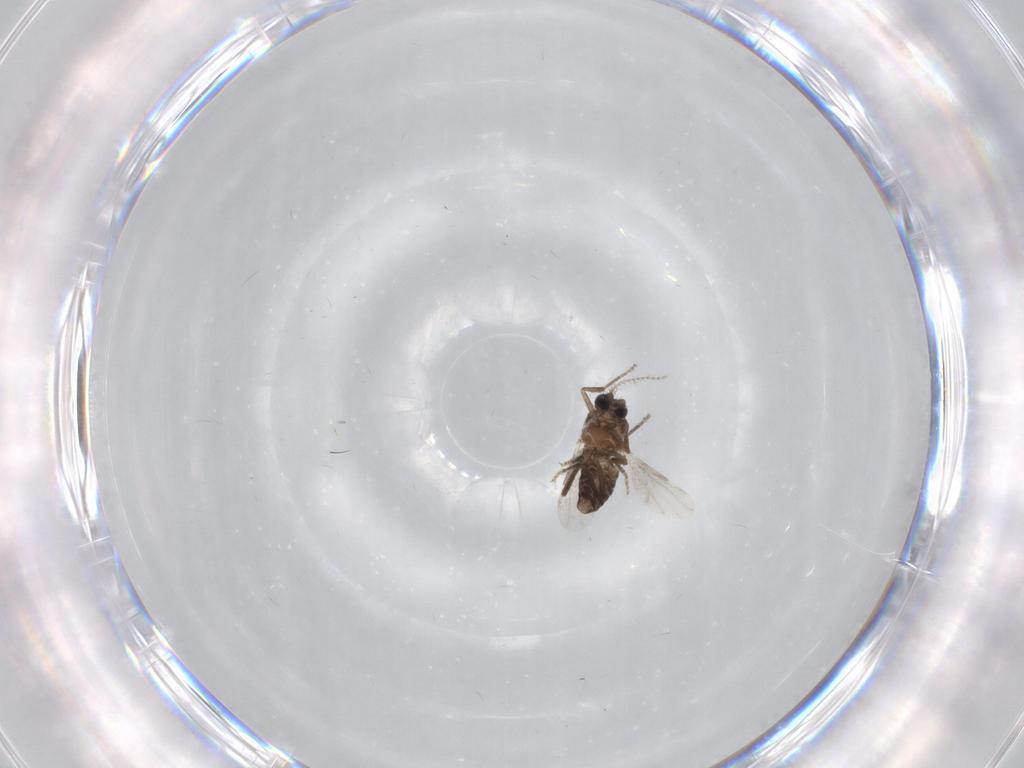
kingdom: Animalia
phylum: Arthropoda
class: Insecta
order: Diptera
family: Ceratopogonidae
